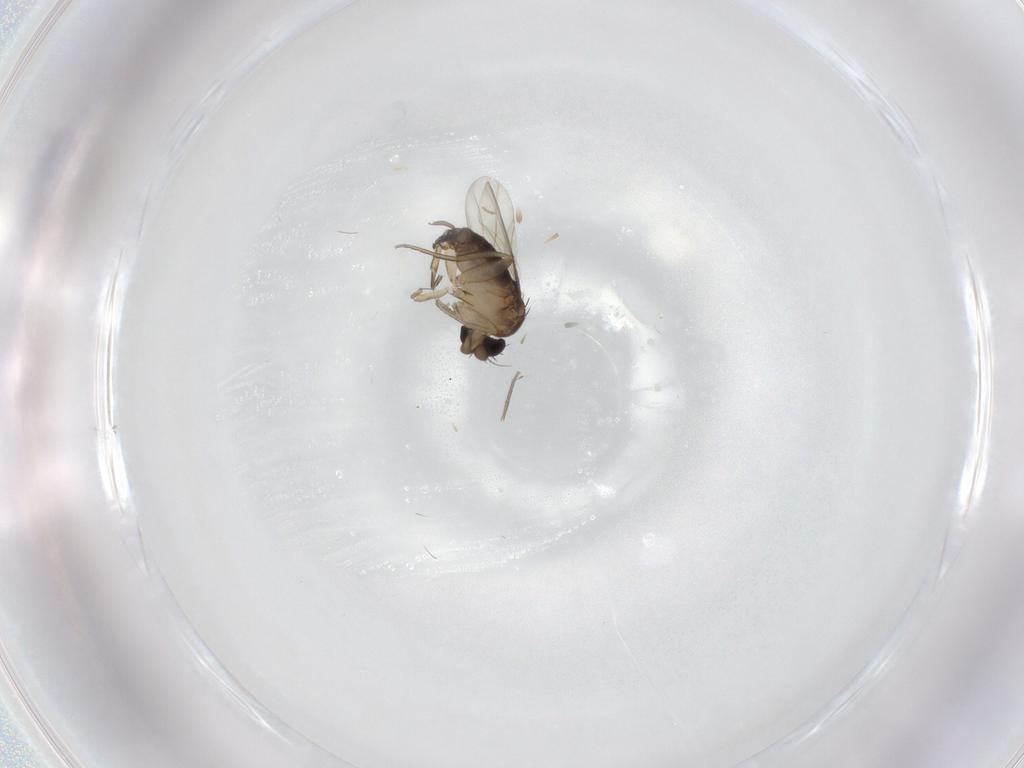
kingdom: Animalia
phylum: Arthropoda
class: Insecta
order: Diptera
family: Ceratopogonidae
